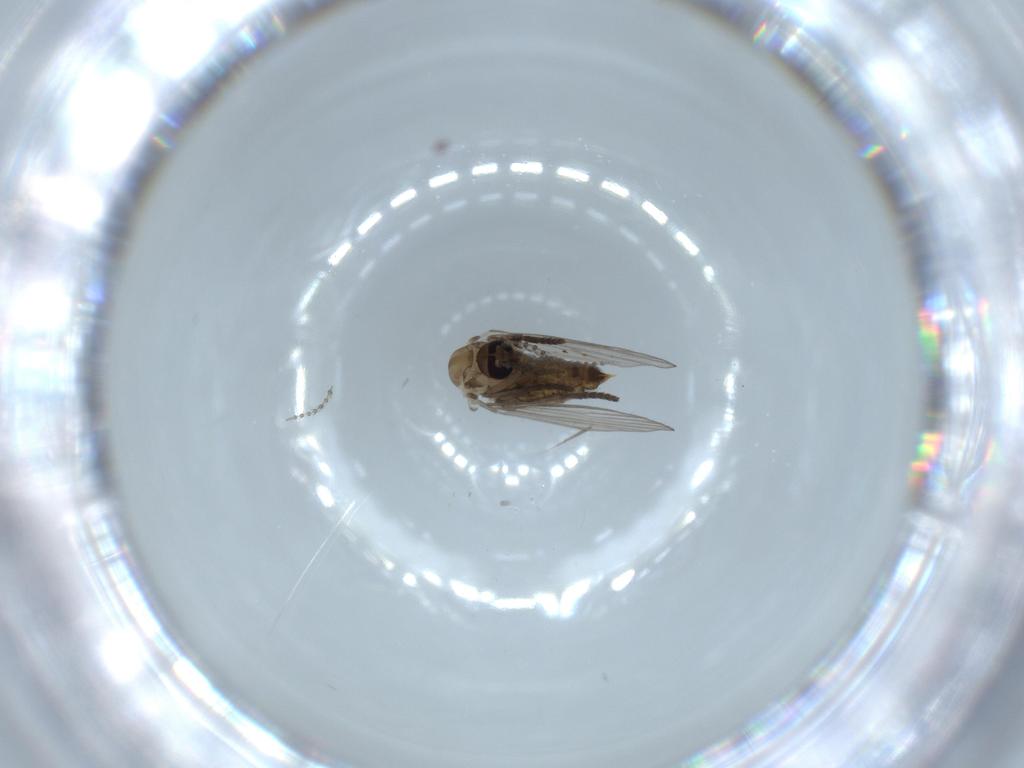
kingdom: Animalia
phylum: Arthropoda
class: Insecta
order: Diptera
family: Psychodidae
